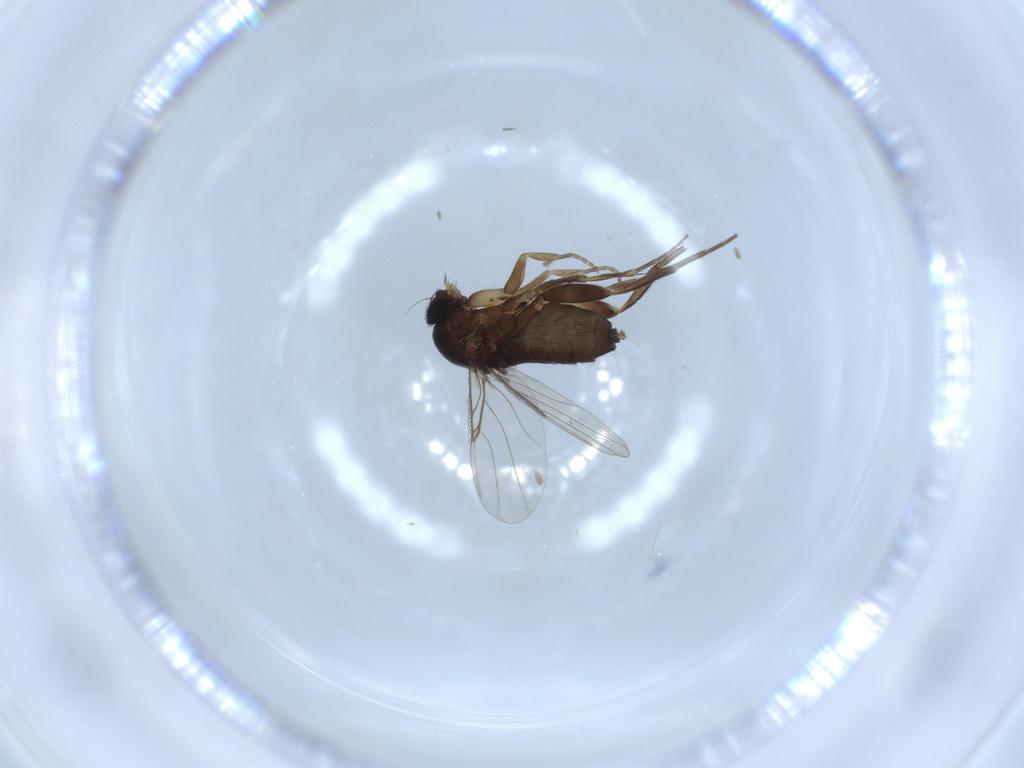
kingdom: Animalia
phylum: Arthropoda
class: Insecta
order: Diptera
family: Phoridae
